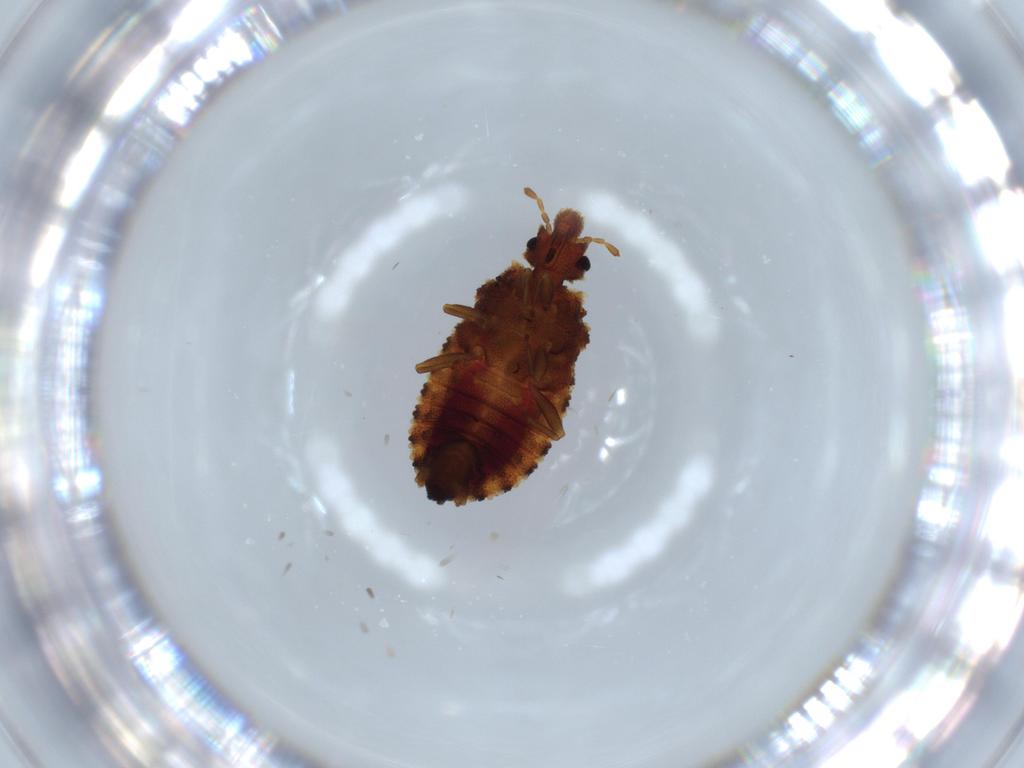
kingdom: Animalia
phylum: Arthropoda
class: Insecta
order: Hemiptera
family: Aradidae
